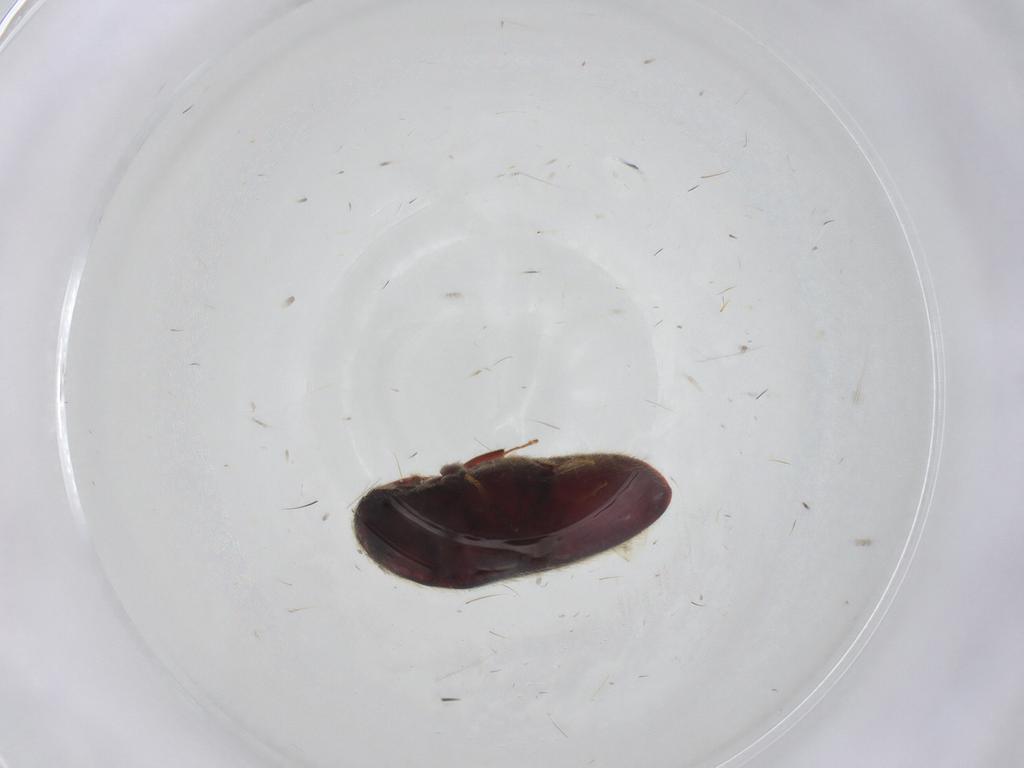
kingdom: Animalia
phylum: Arthropoda
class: Insecta
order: Coleoptera
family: Throscidae
